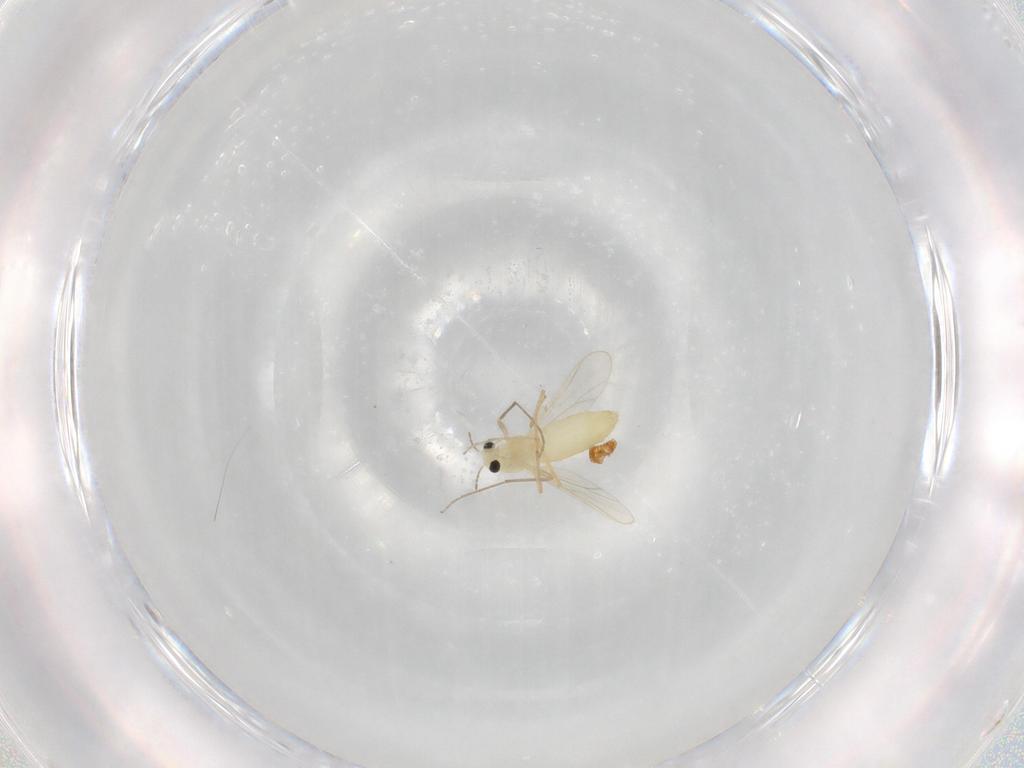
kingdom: Animalia
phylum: Arthropoda
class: Insecta
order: Diptera
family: Chironomidae
